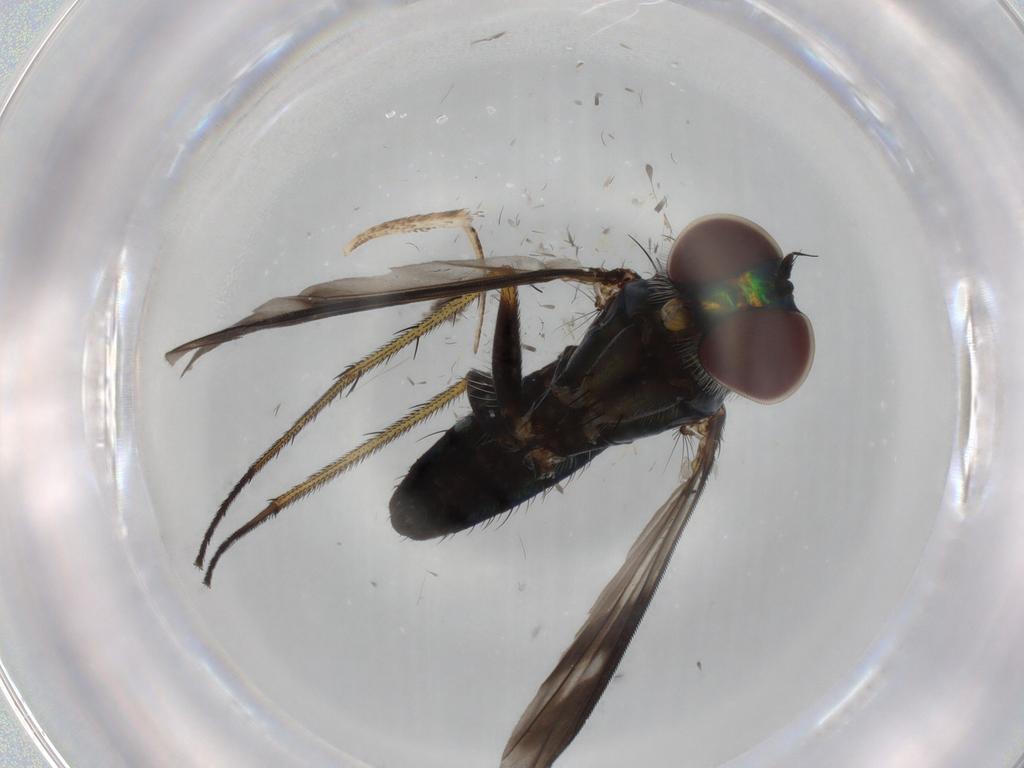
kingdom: Animalia
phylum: Arthropoda
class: Insecta
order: Diptera
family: Dolichopodidae
